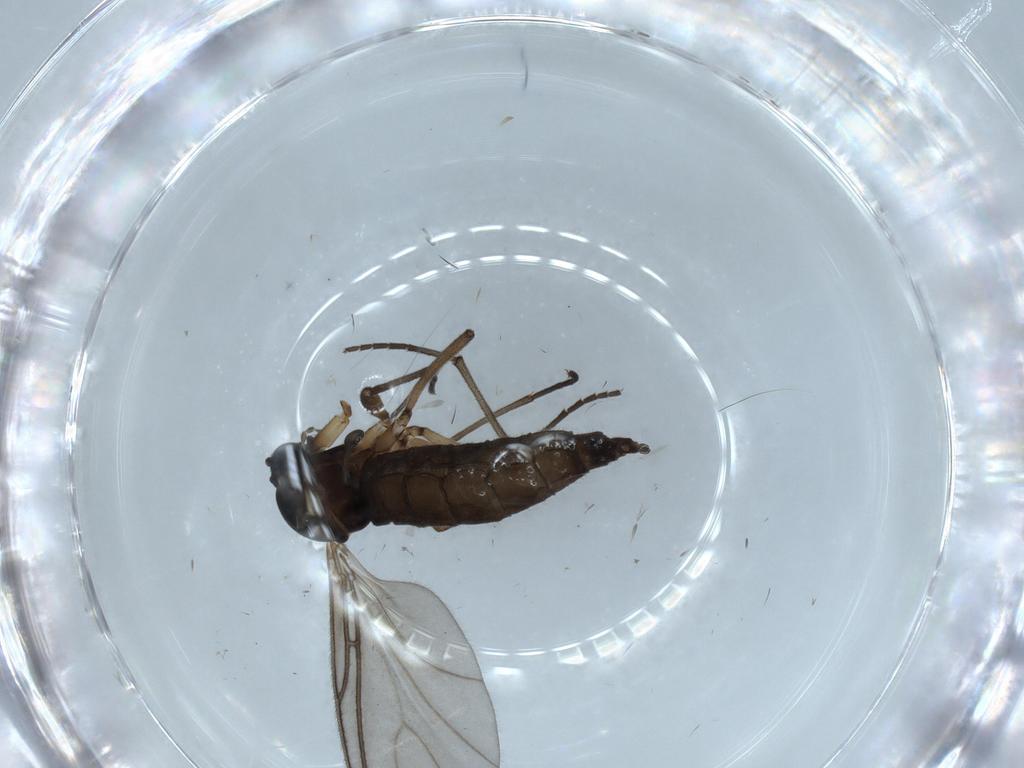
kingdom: Animalia
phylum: Arthropoda
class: Insecta
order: Diptera
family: Sciaridae
